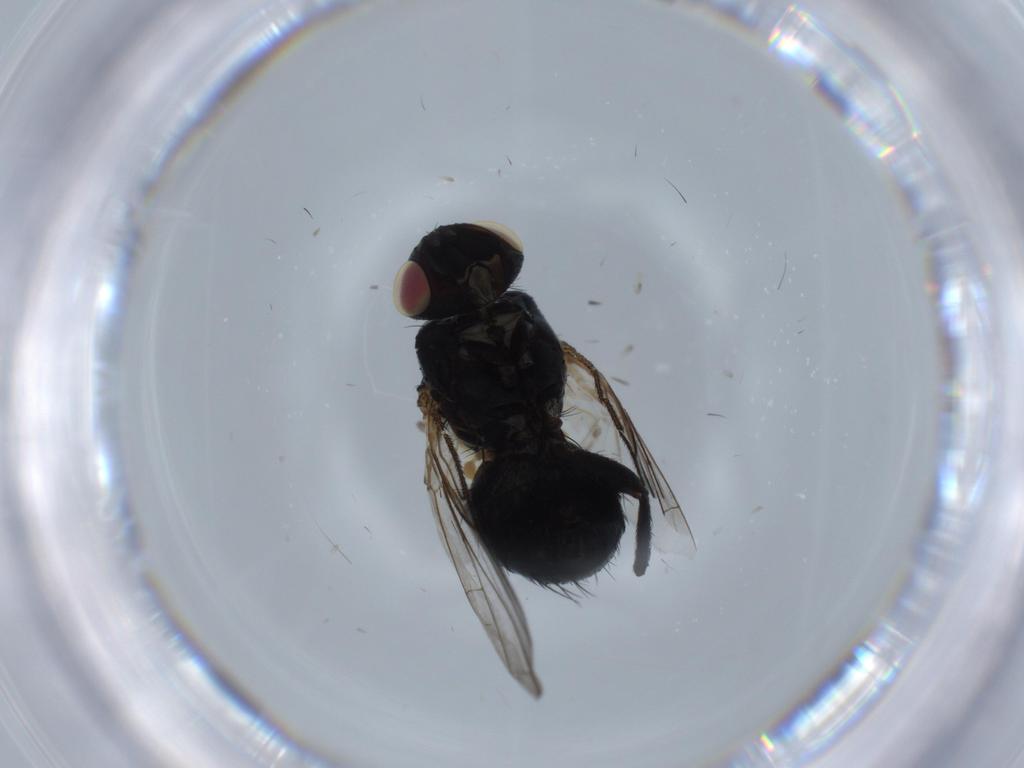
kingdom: Animalia
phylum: Arthropoda
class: Insecta
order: Diptera
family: Tachinidae
